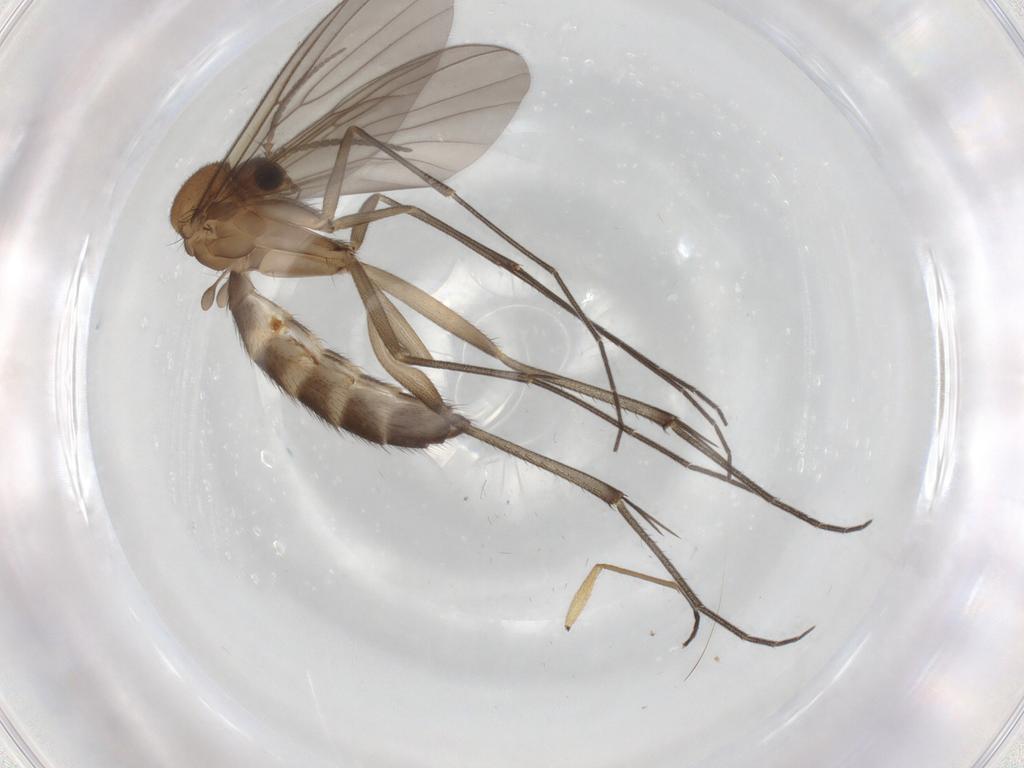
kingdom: Animalia
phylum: Arthropoda
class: Insecta
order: Diptera
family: Mycetophilidae
